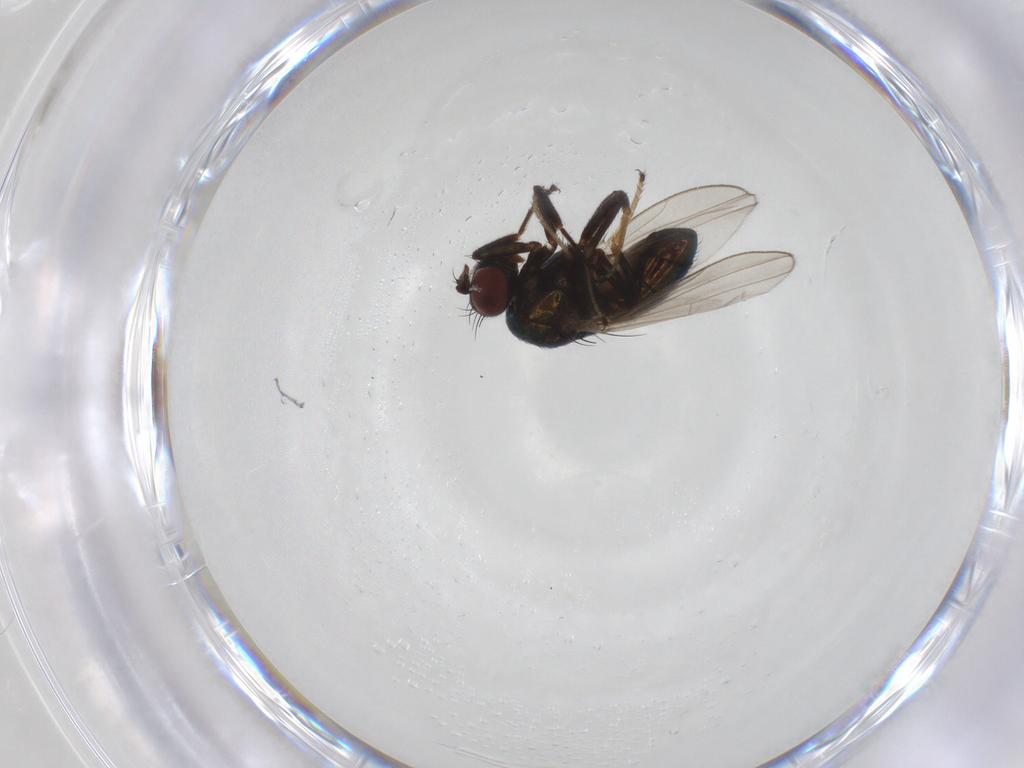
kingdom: Animalia
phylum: Arthropoda
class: Insecta
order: Diptera
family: Ephydridae
